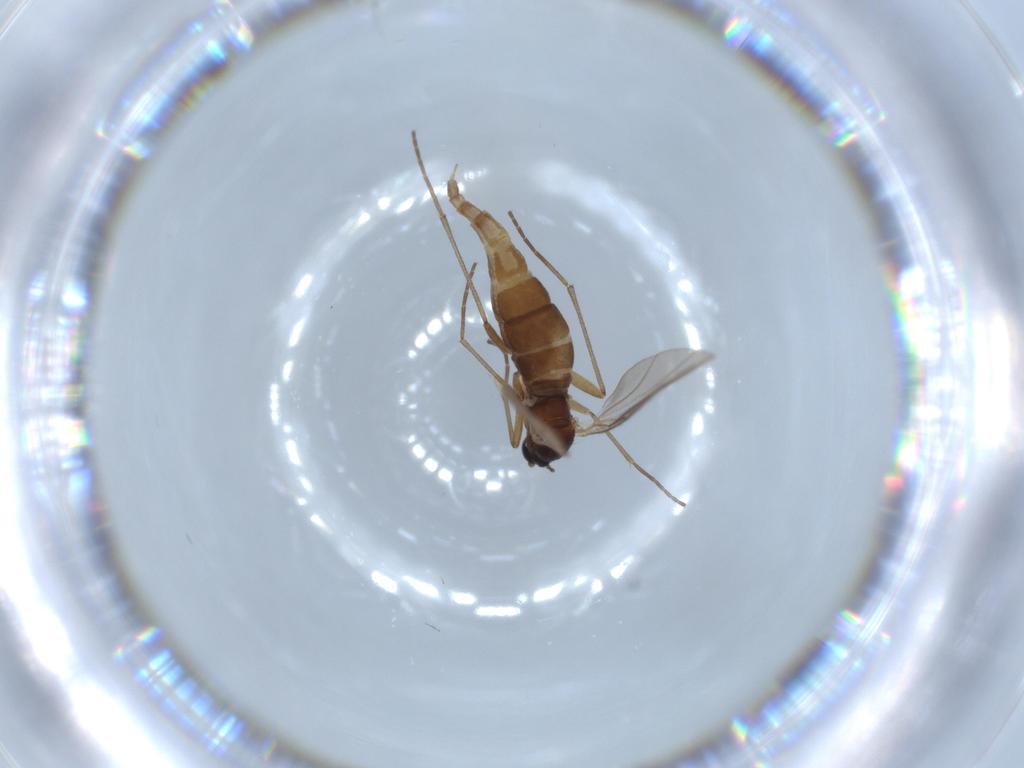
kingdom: Animalia
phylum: Arthropoda
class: Insecta
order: Diptera
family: Sciaridae
